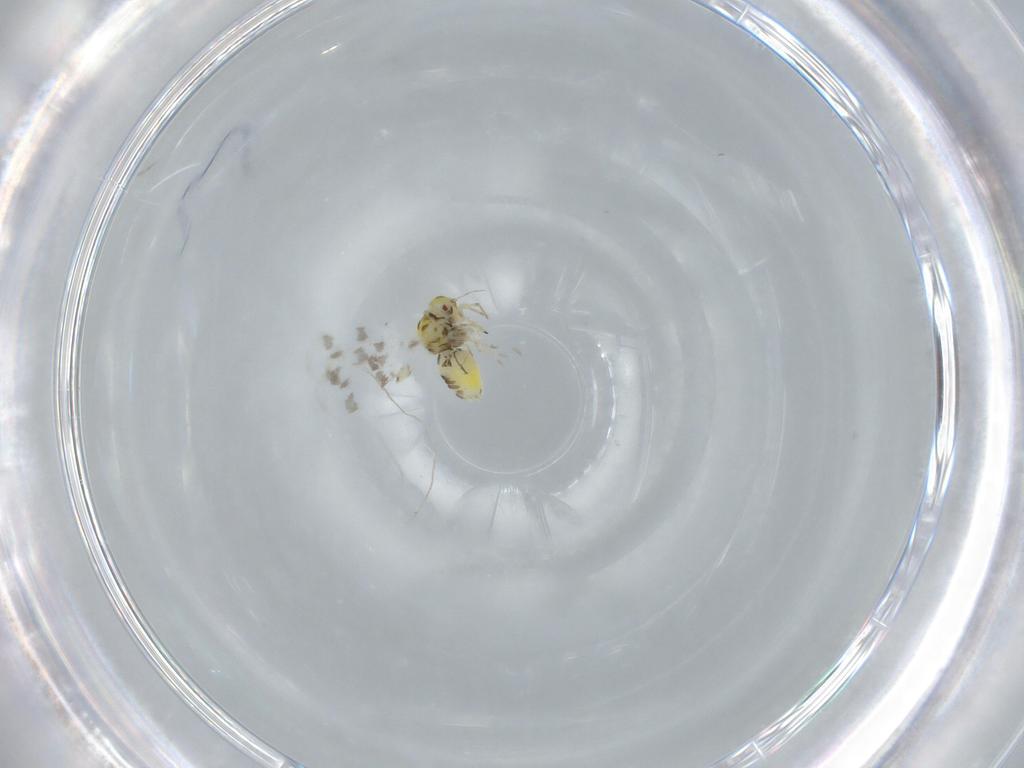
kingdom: Animalia
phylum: Arthropoda
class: Insecta
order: Hemiptera
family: Aleyrodidae
